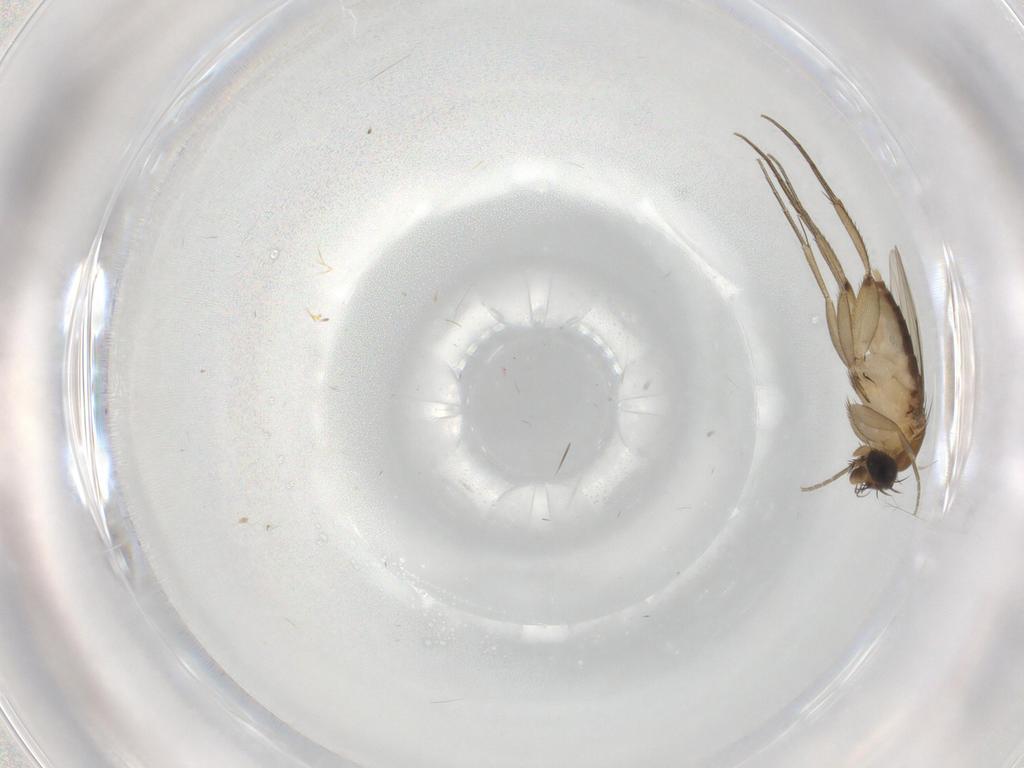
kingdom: Animalia
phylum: Arthropoda
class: Insecta
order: Diptera
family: Phoridae
